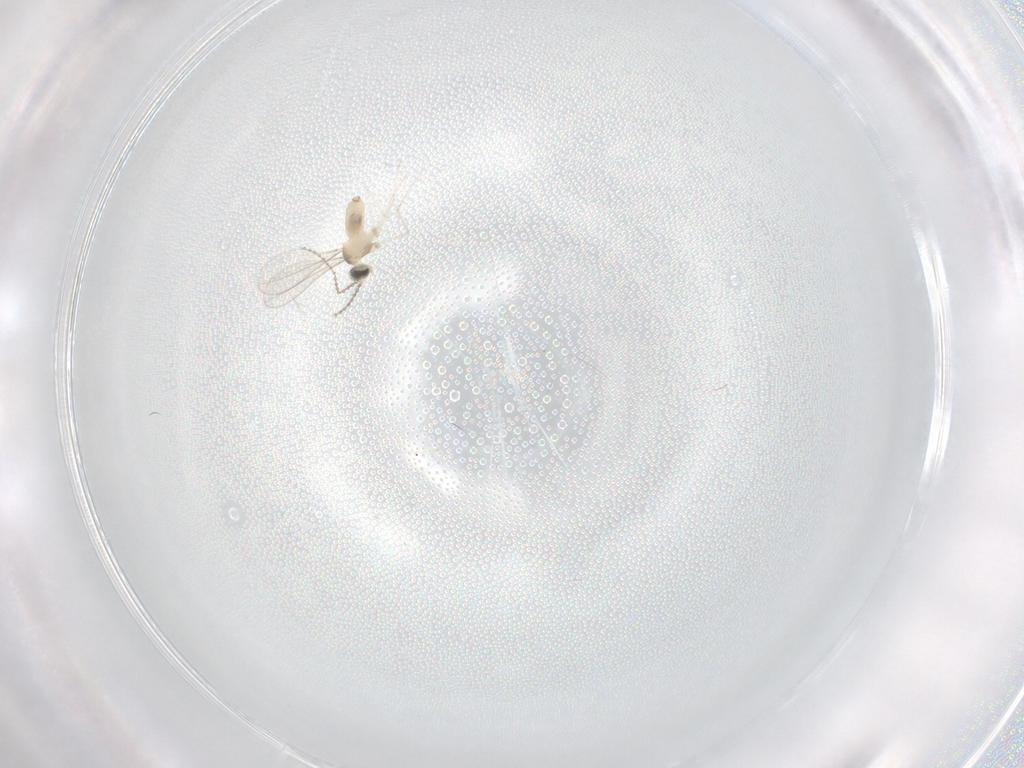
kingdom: Animalia
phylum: Arthropoda
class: Insecta
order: Diptera
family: Cecidomyiidae
